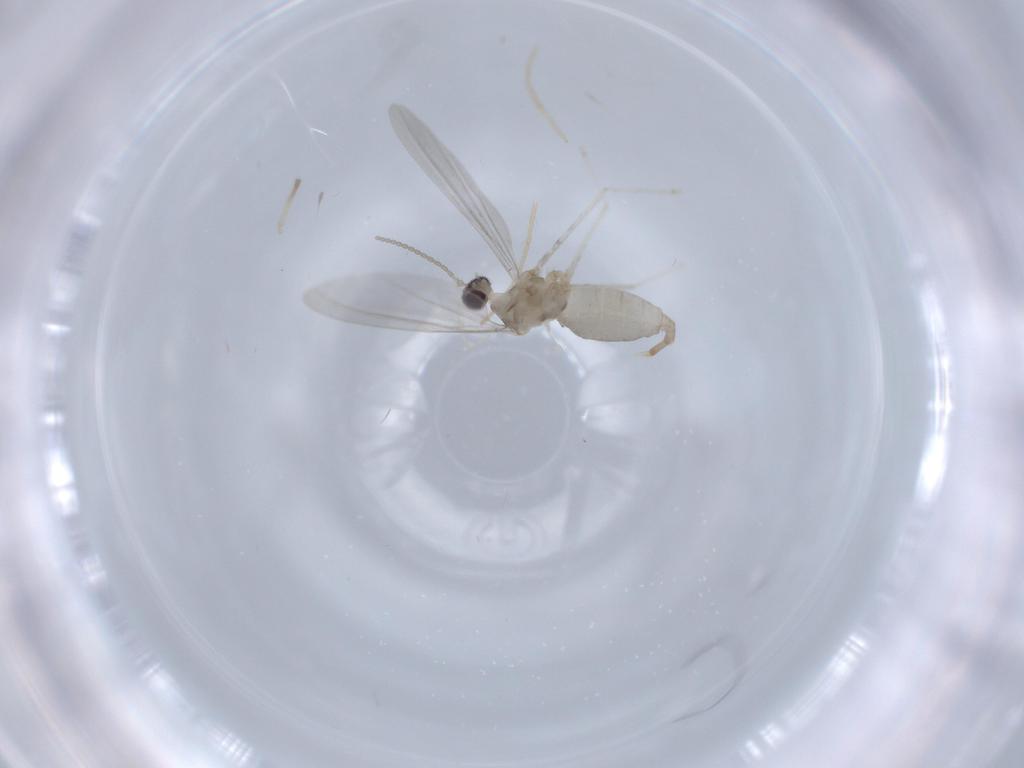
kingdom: Animalia
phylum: Arthropoda
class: Insecta
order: Diptera
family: Cecidomyiidae
